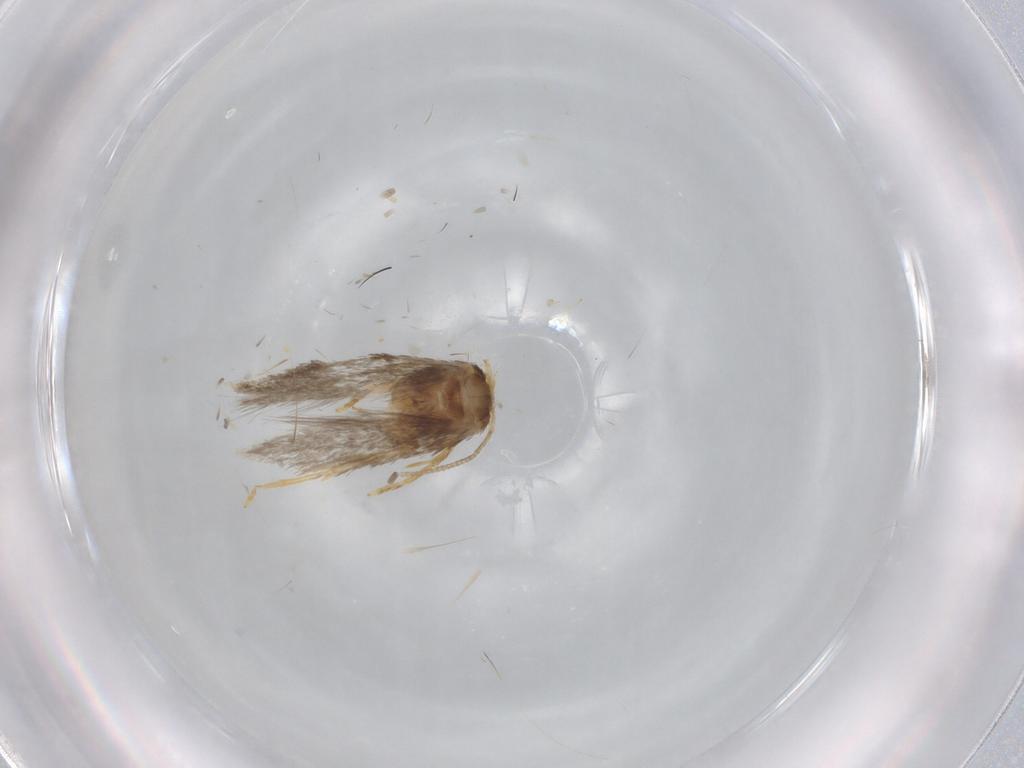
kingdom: Animalia
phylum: Arthropoda
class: Insecta
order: Lepidoptera
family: Nepticulidae
